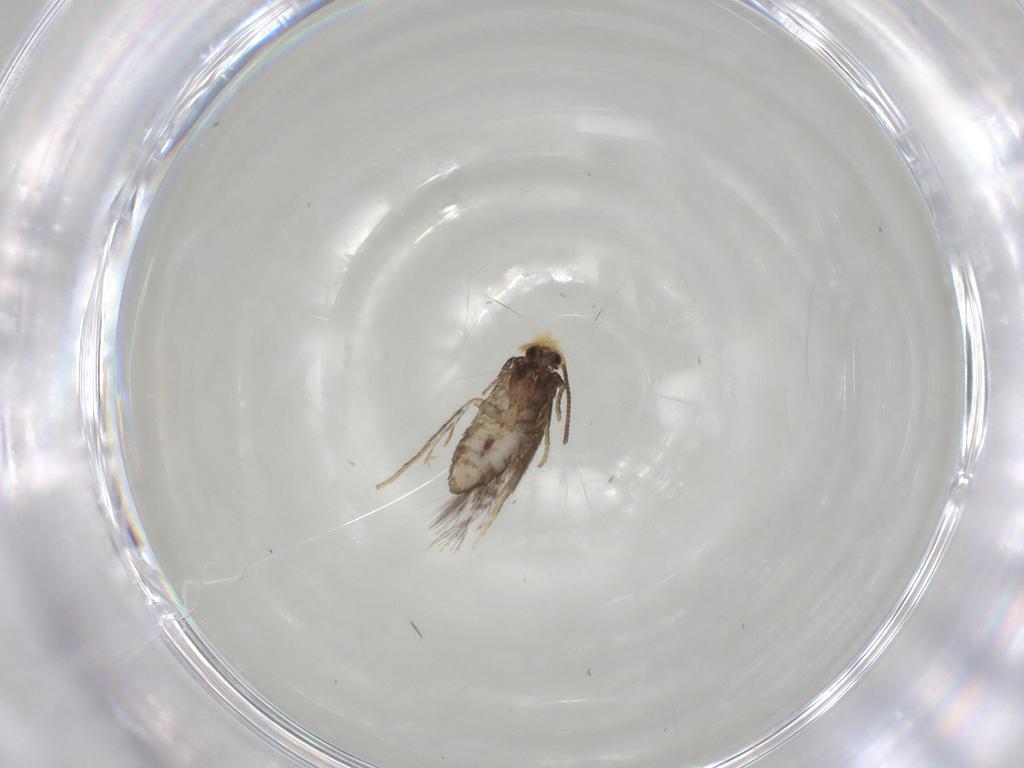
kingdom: Animalia
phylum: Arthropoda
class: Insecta
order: Lepidoptera
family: Nepticulidae
